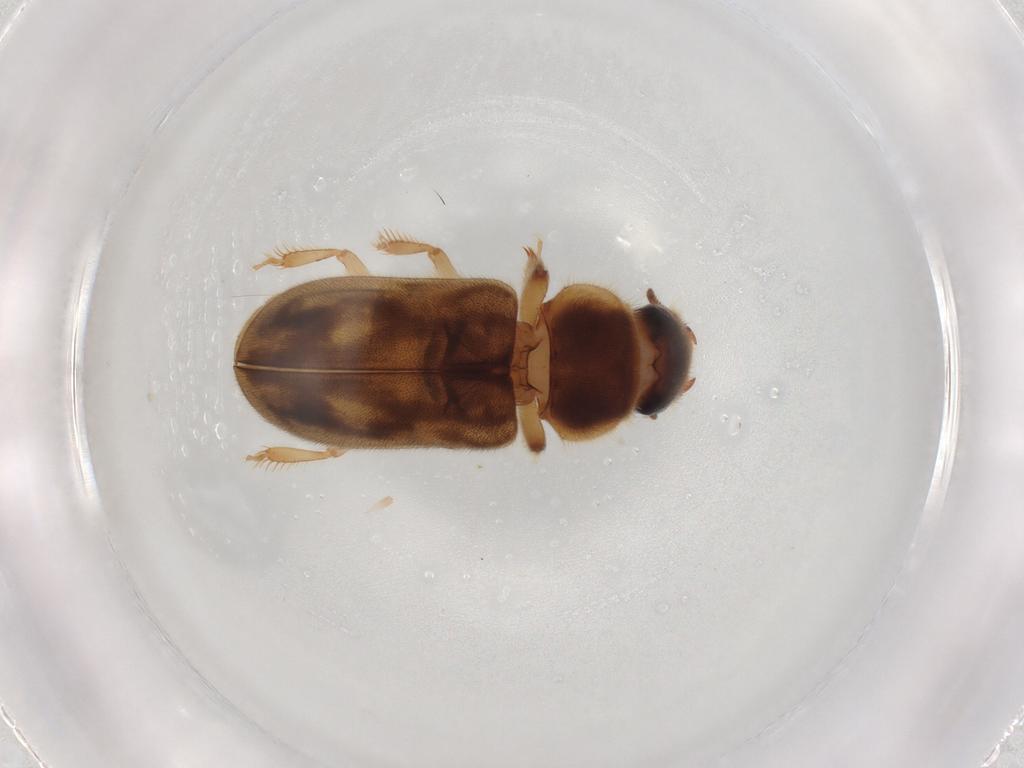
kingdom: Animalia
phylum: Arthropoda
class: Insecta
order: Coleoptera
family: Heteroceridae
